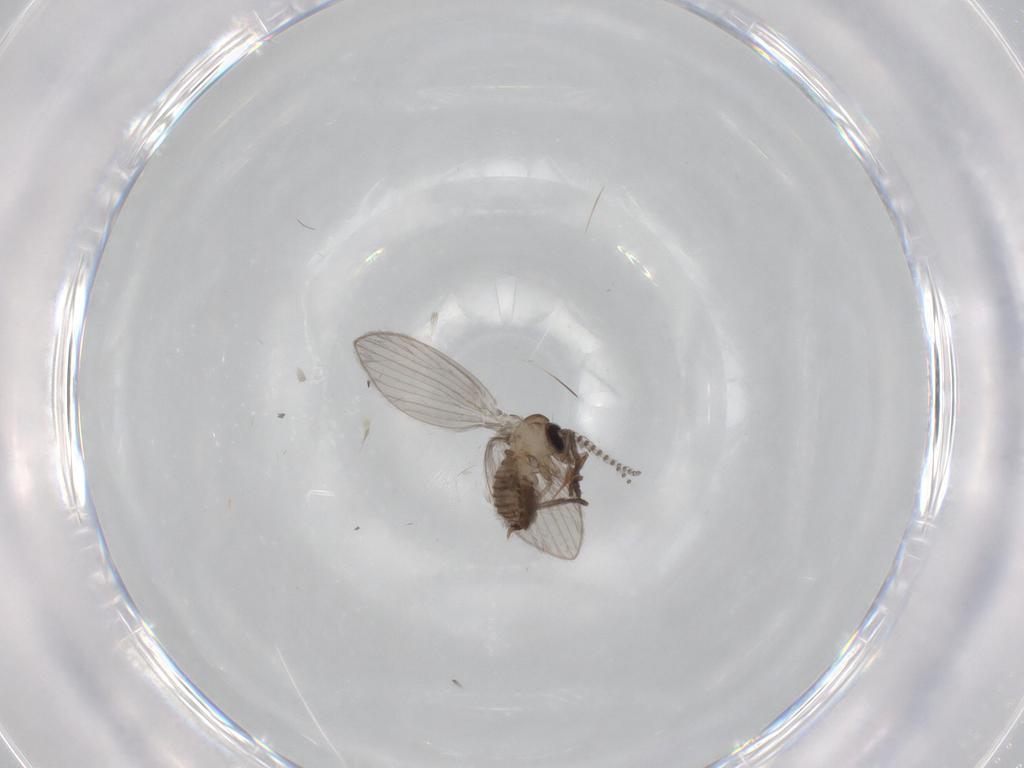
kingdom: Animalia
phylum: Arthropoda
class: Insecta
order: Diptera
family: Psychodidae
